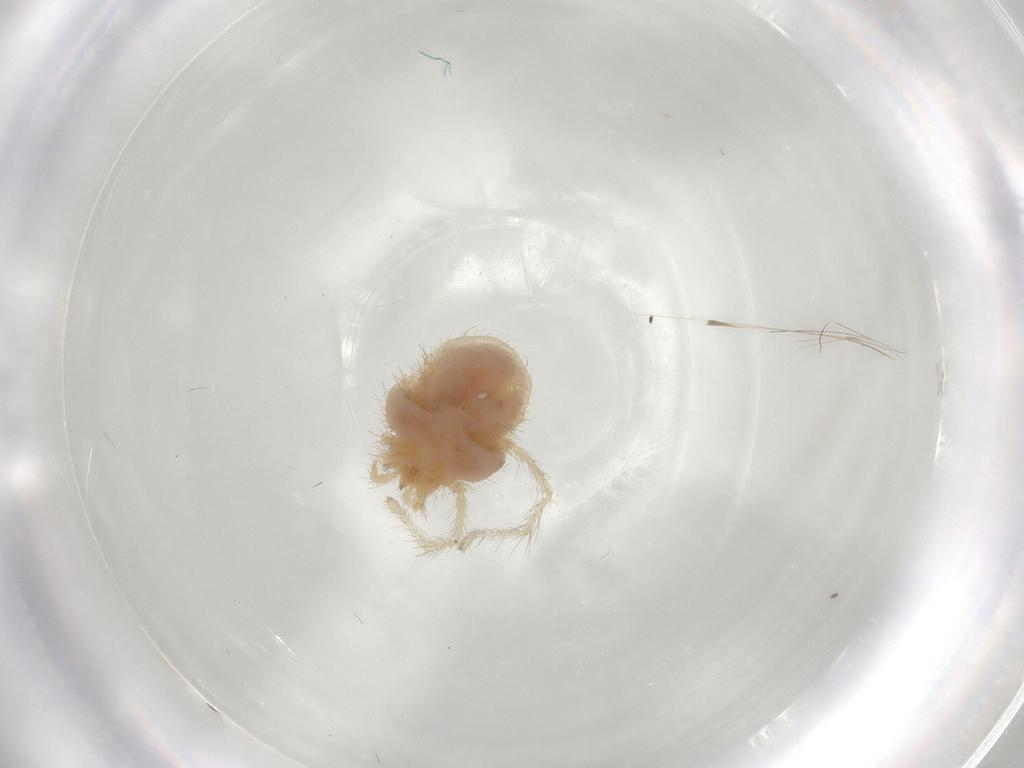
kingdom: Animalia
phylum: Arthropoda
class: Arachnida
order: Trombidiformes
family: Erythraeidae
